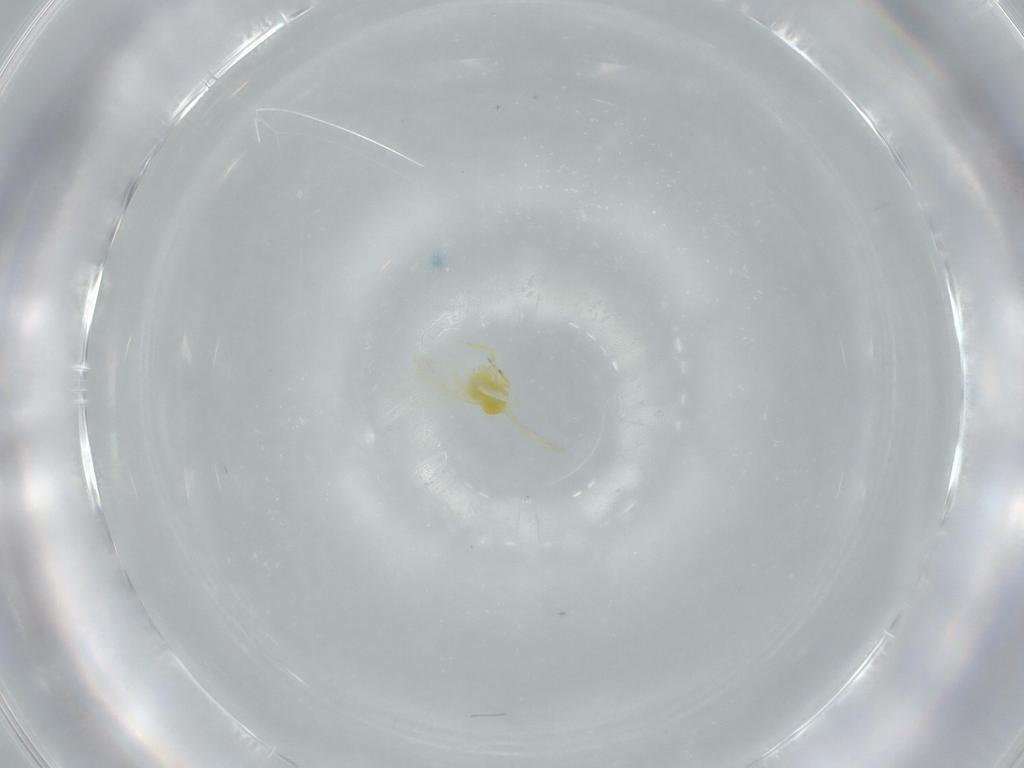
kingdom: Animalia
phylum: Arthropoda
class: Insecta
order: Hemiptera
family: Aleyrodidae
